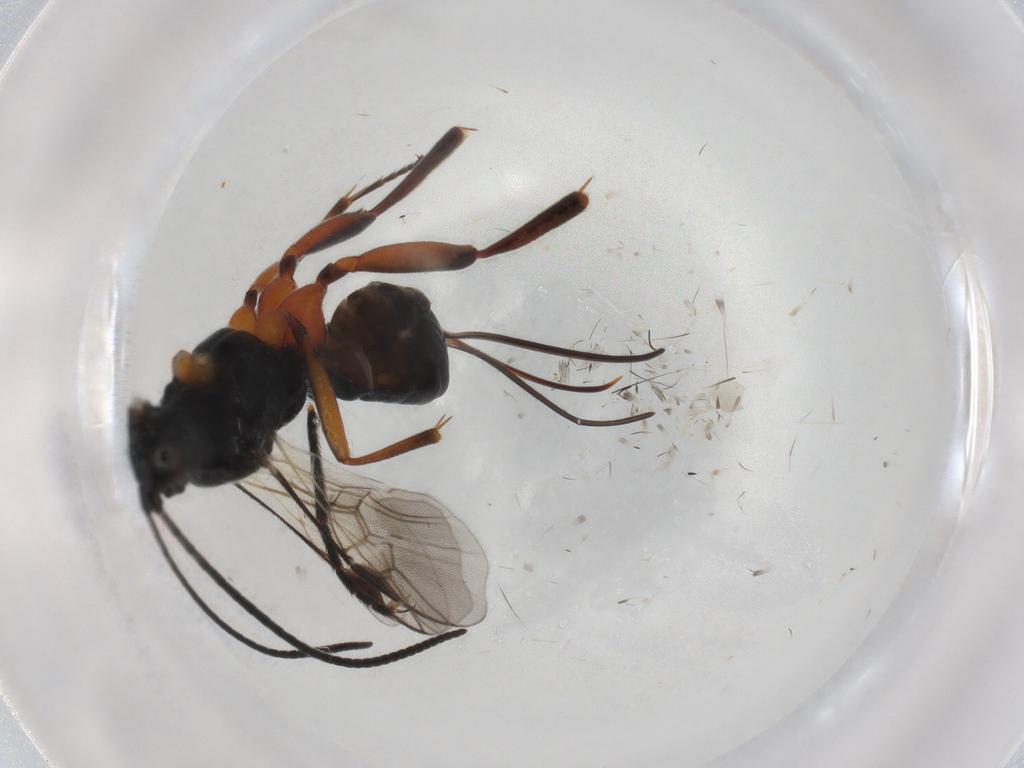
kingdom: Animalia
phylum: Arthropoda
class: Insecta
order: Hymenoptera
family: Braconidae
